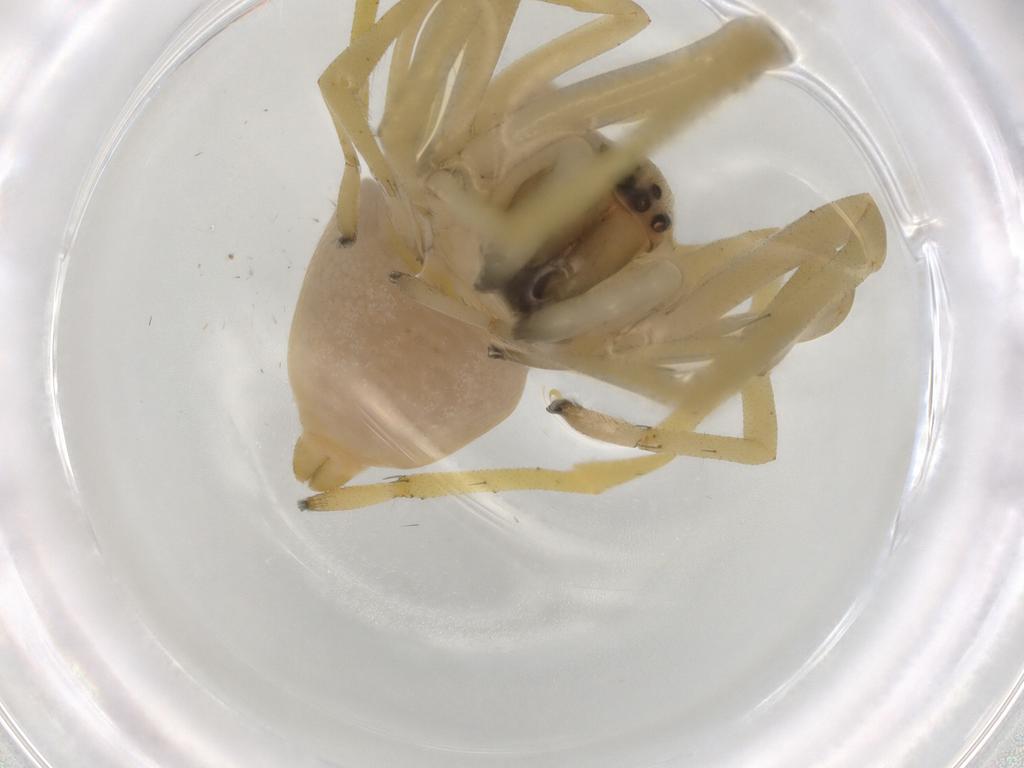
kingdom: Animalia
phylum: Arthropoda
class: Arachnida
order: Araneae
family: Cheiracanthiidae
